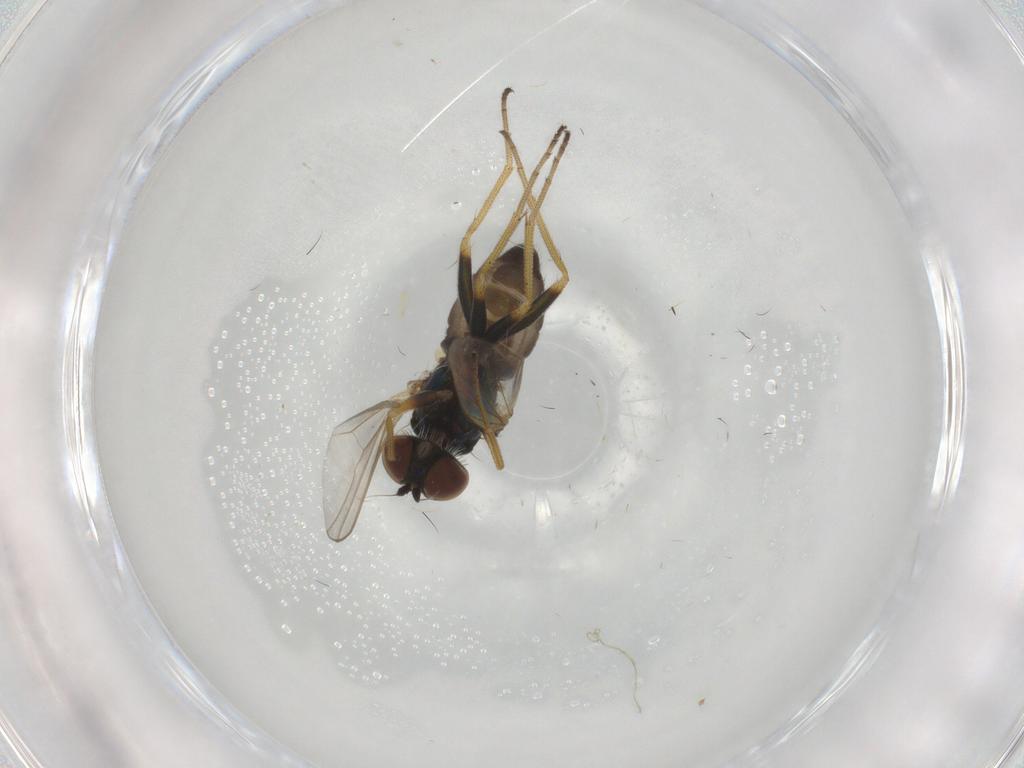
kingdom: Animalia
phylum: Arthropoda
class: Insecta
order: Diptera
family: Dolichopodidae
